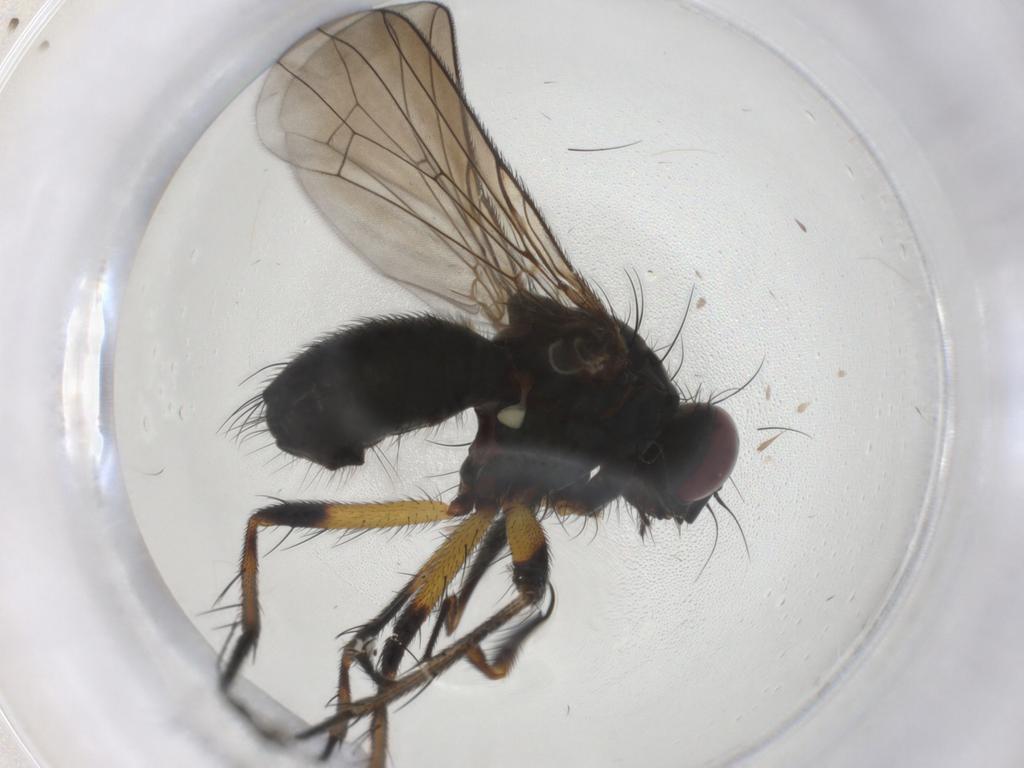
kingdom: Animalia
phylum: Arthropoda
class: Insecta
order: Diptera
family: Muscidae
